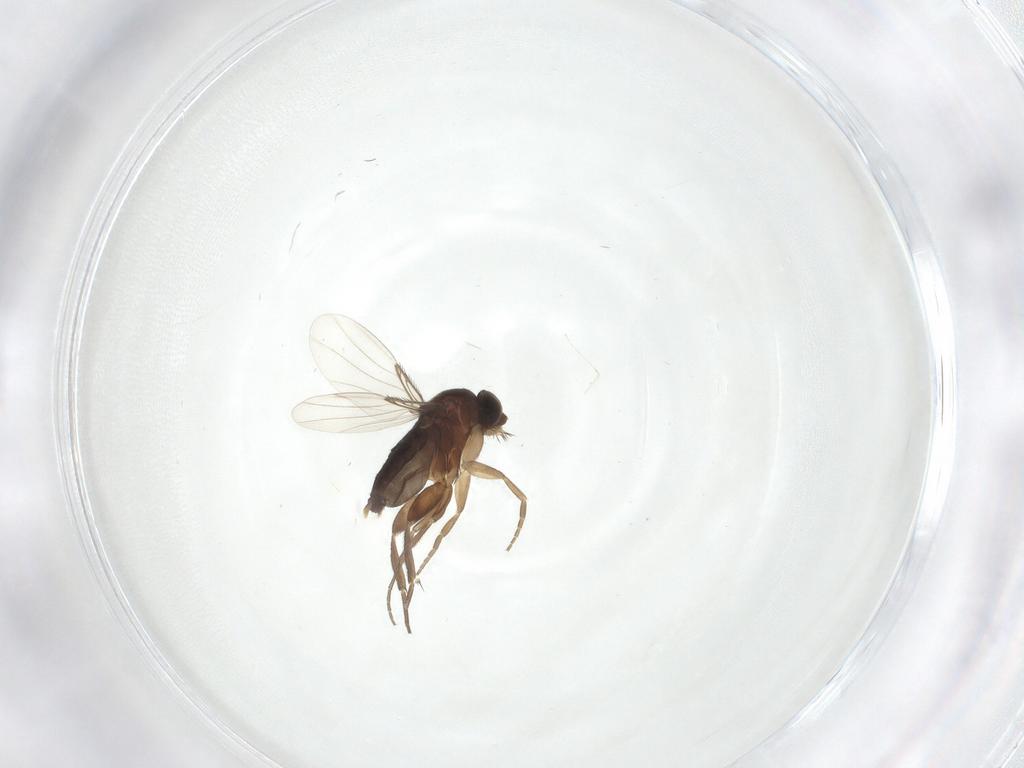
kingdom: Animalia
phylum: Arthropoda
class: Insecta
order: Diptera
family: Phoridae
